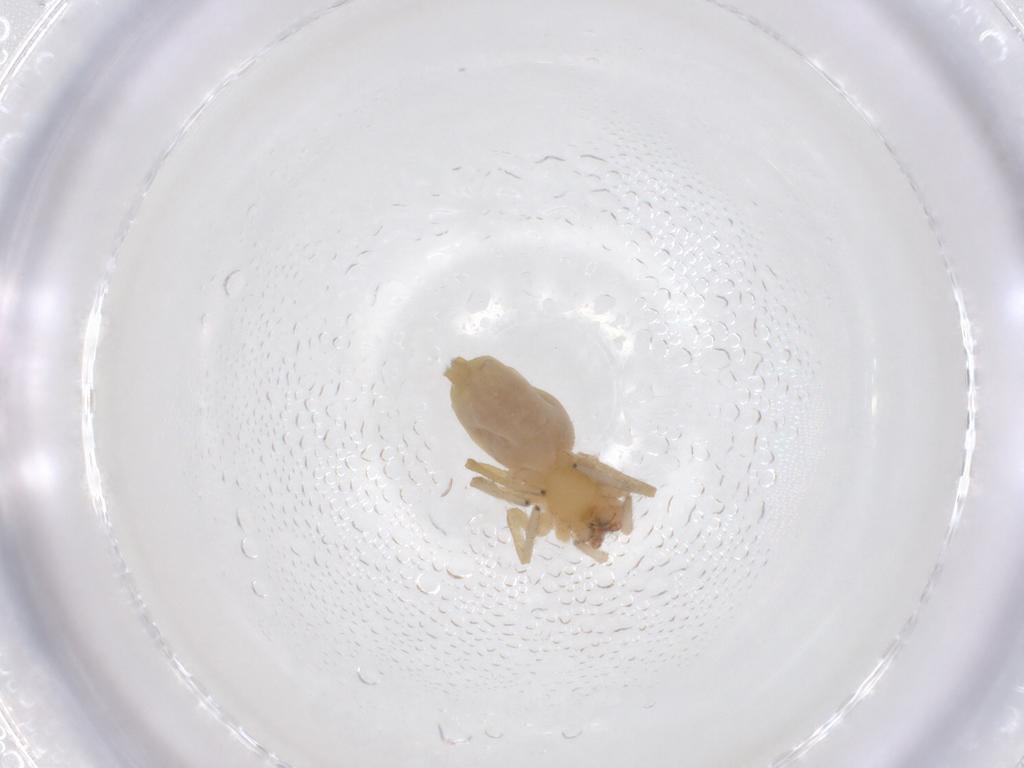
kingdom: Animalia
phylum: Arthropoda
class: Arachnida
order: Araneae
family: Cheiracanthiidae
